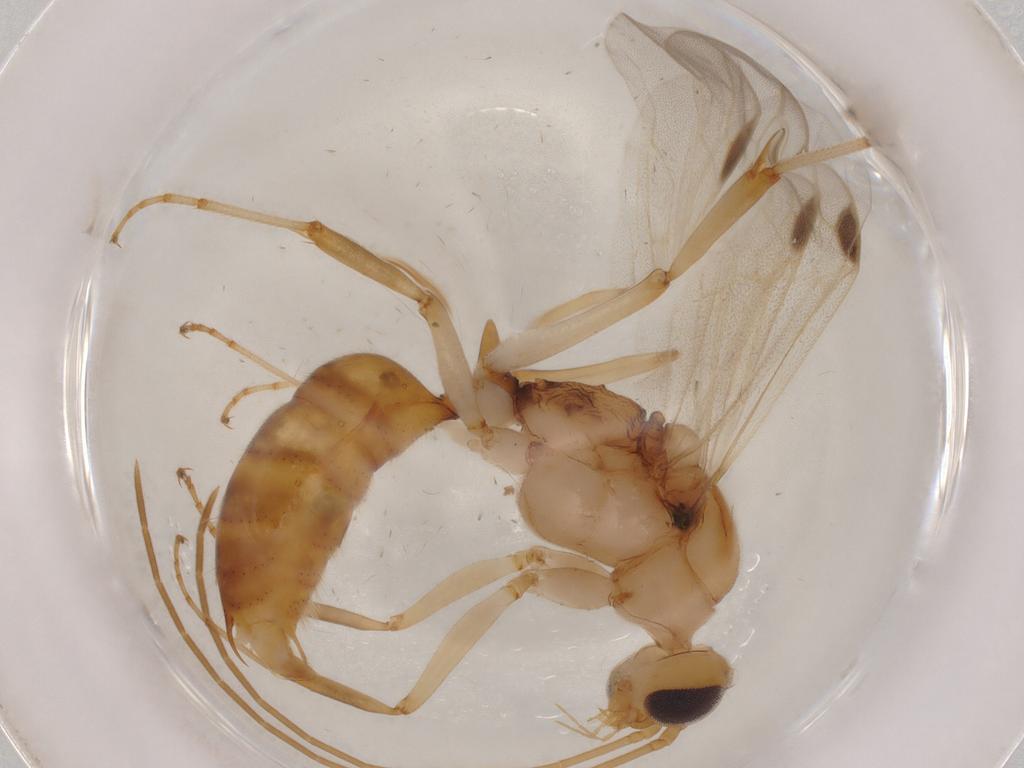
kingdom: Animalia
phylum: Arthropoda
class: Insecta
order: Hymenoptera
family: Formicidae
